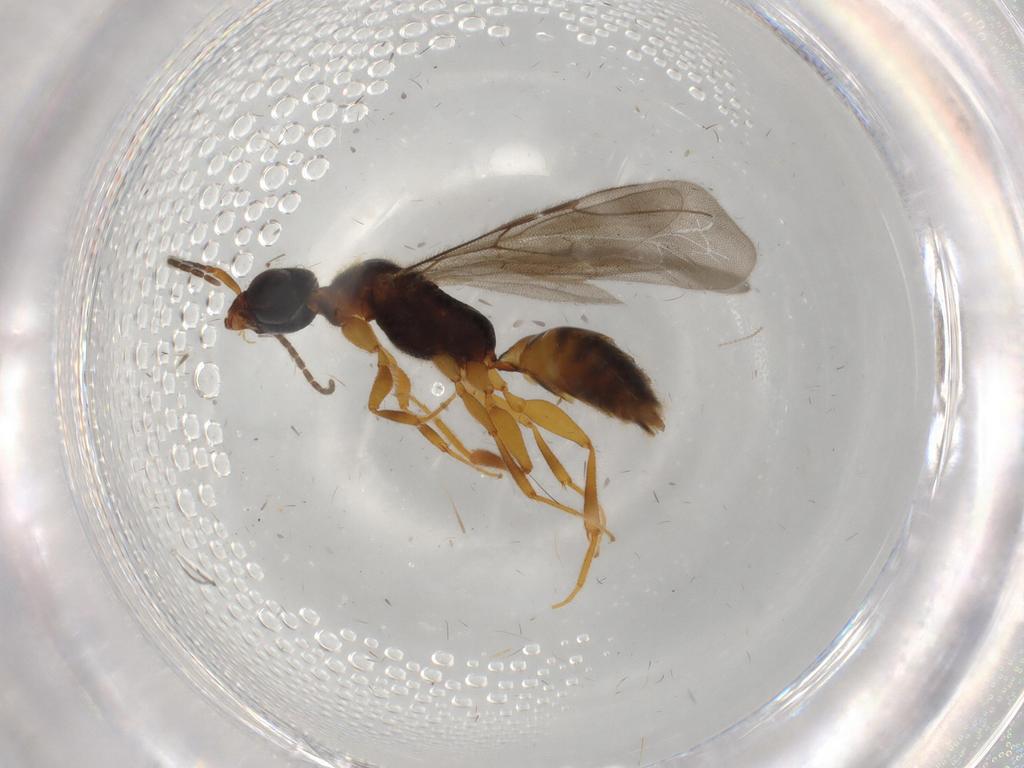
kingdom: Animalia
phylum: Arthropoda
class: Insecta
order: Hymenoptera
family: Bethylidae
